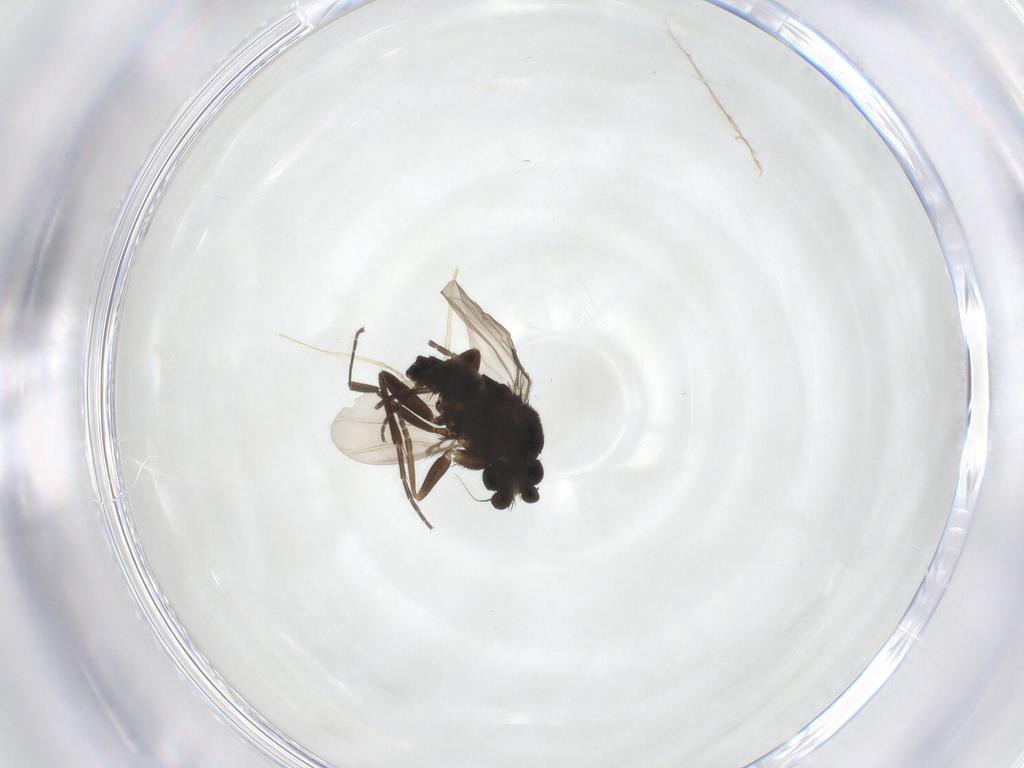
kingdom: Animalia
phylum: Arthropoda
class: Insecta
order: Diptera
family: Phoridae
